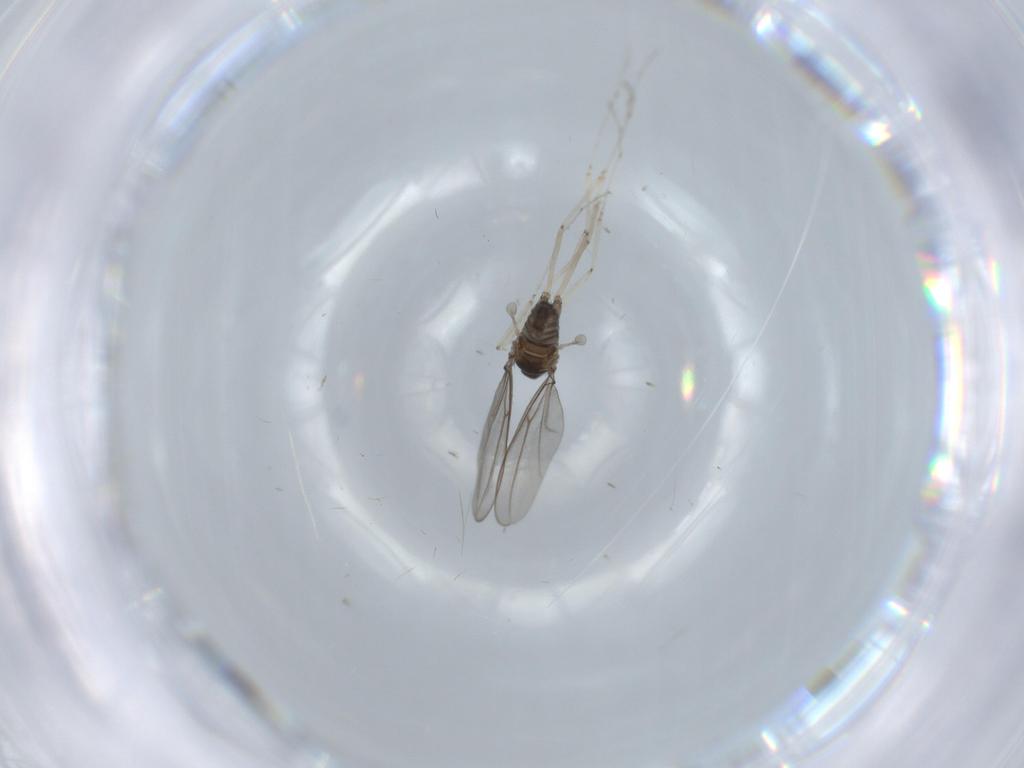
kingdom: Animalia
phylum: Arthropoda
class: Insecta
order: Diptera
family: Cecidomyiidae
